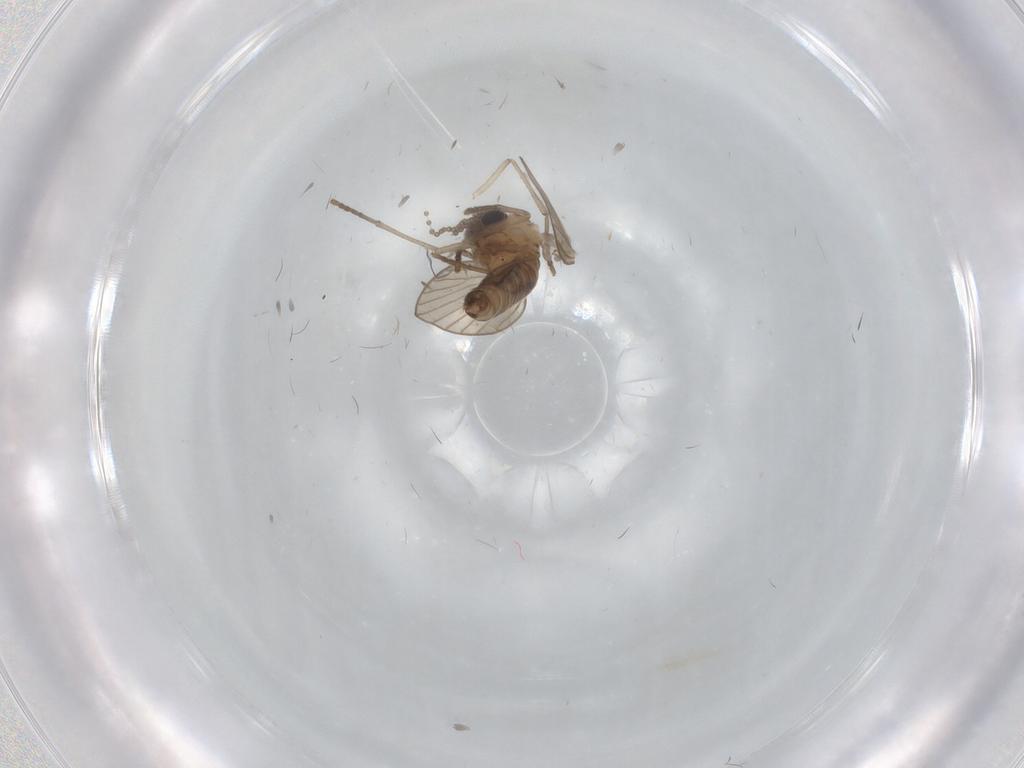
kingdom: Animalia
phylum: Arthropoda
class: Insecta
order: Diptera
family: Psychodidae
